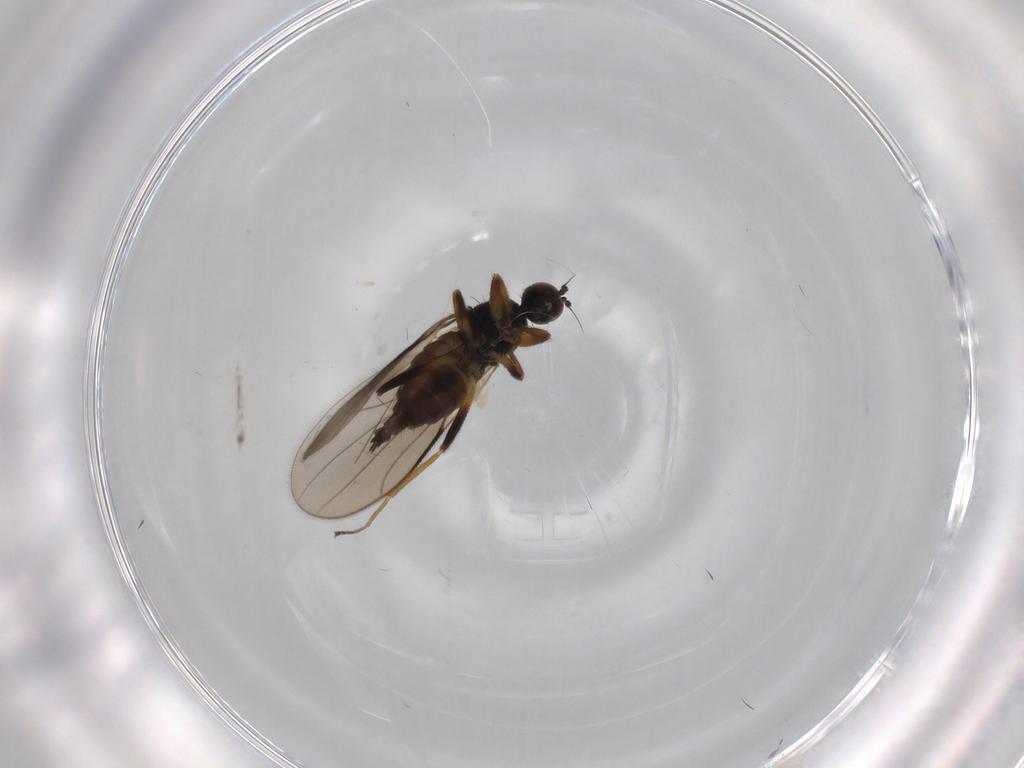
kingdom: Animalia
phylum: Arthropoda
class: Insecta
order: Diptera
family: Hybotidae
